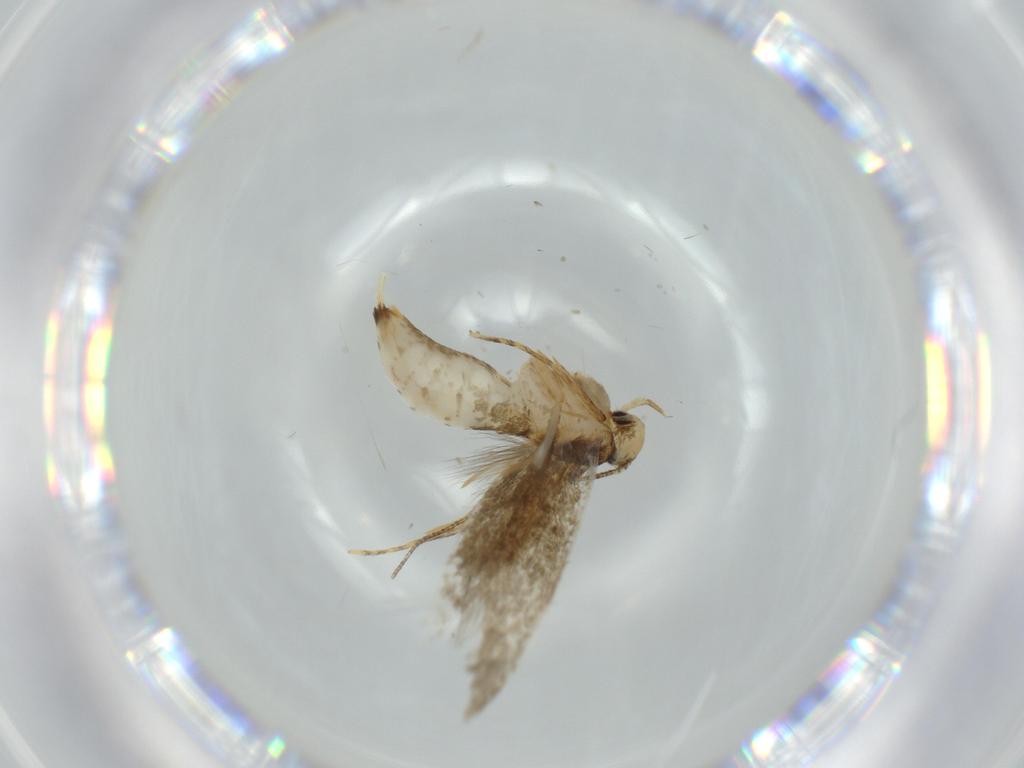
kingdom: Animalia
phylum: Arthropoda
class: Insecta
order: Lepidoptera
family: Tineidae
